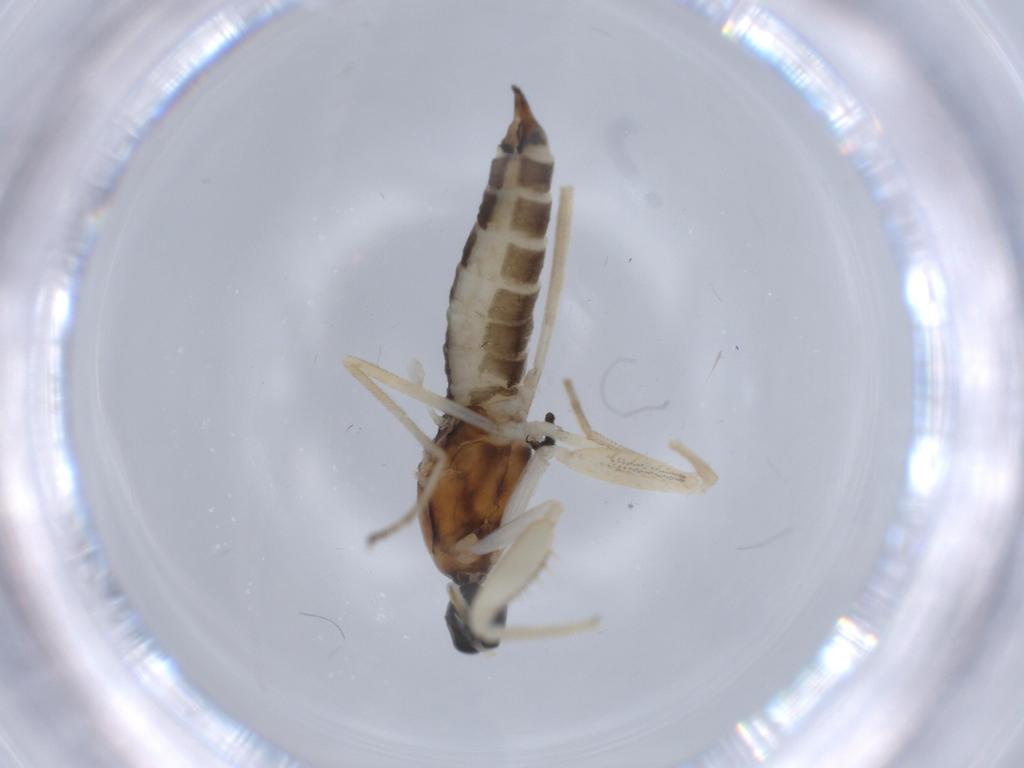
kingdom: Animalia
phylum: Arthropoda
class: Insecta
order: Diptera
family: Empididae
